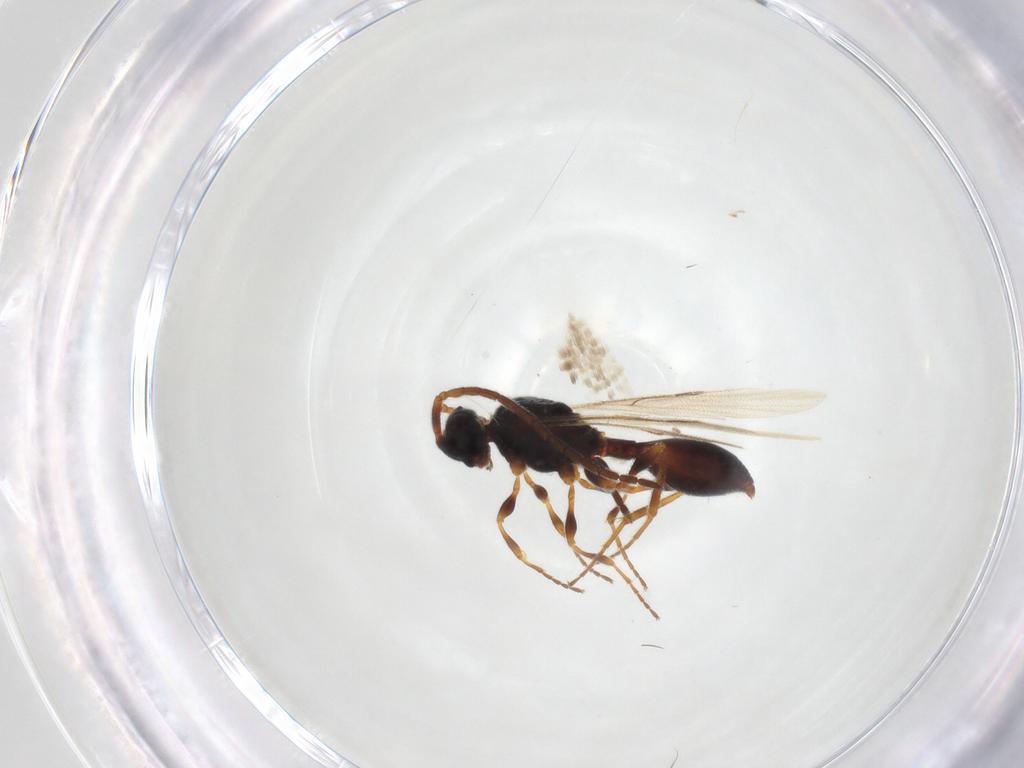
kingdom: Animalia
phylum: Arthropoda
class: Insecta
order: Hymenoptera
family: Diapriidae
